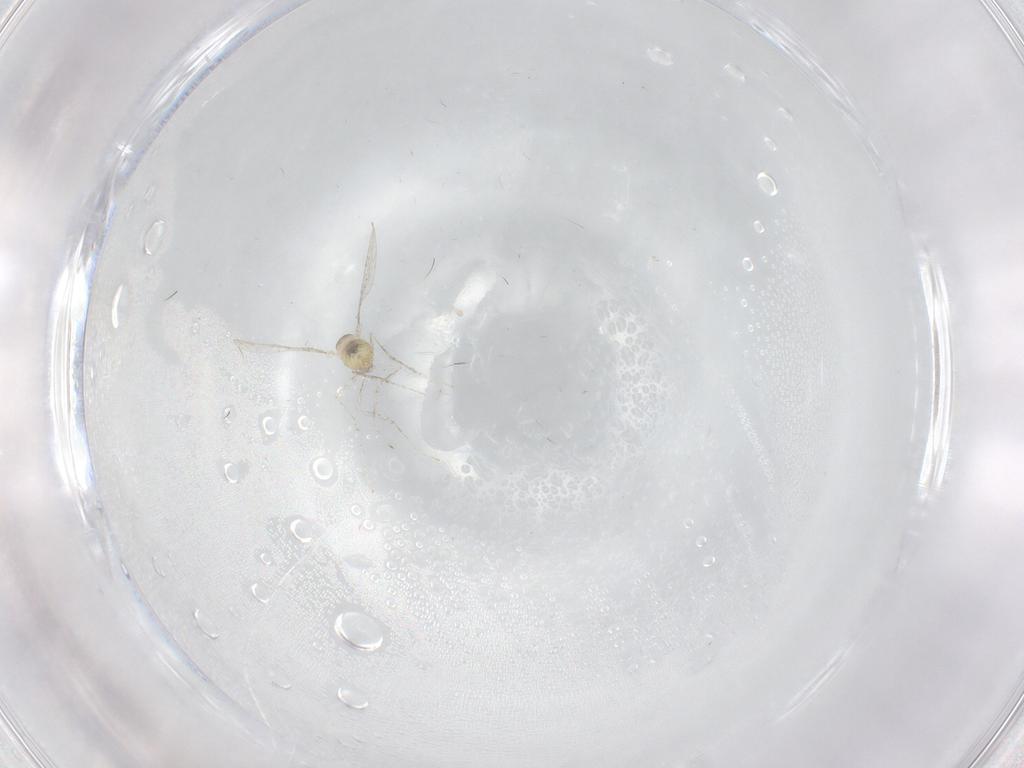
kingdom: Animalia
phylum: Arthropoda
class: Insecta
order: Diptera
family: Cecidomyiidae
